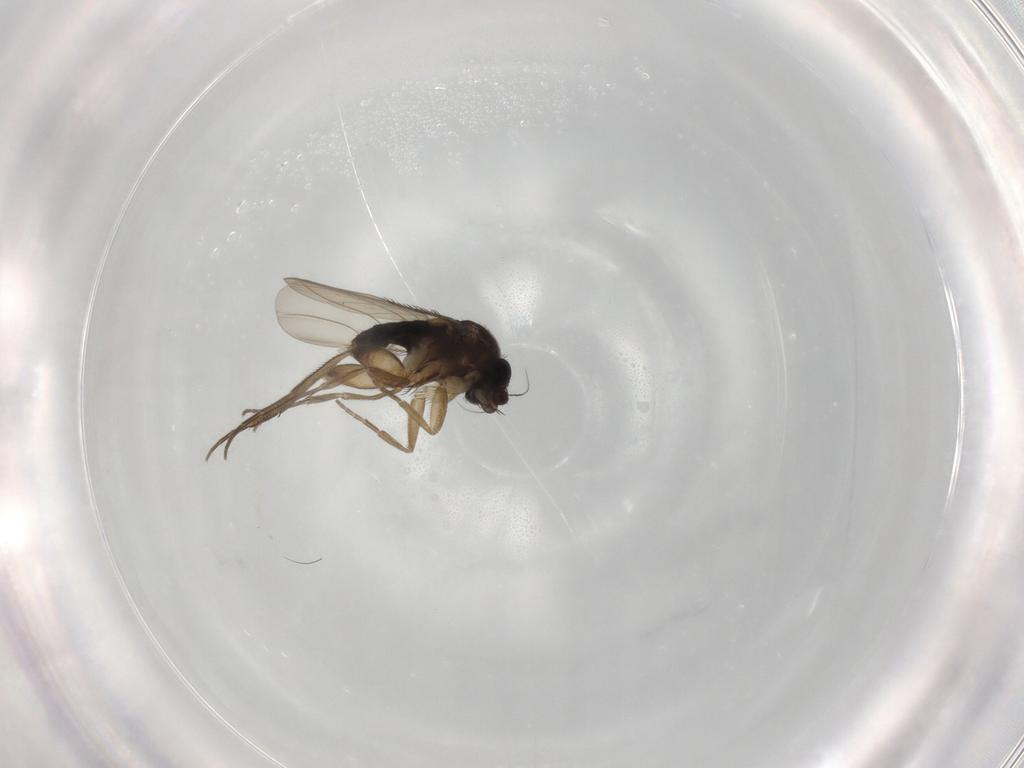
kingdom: Animalia
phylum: Arthropoda
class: Insecta
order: Diptera
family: Phoridae
